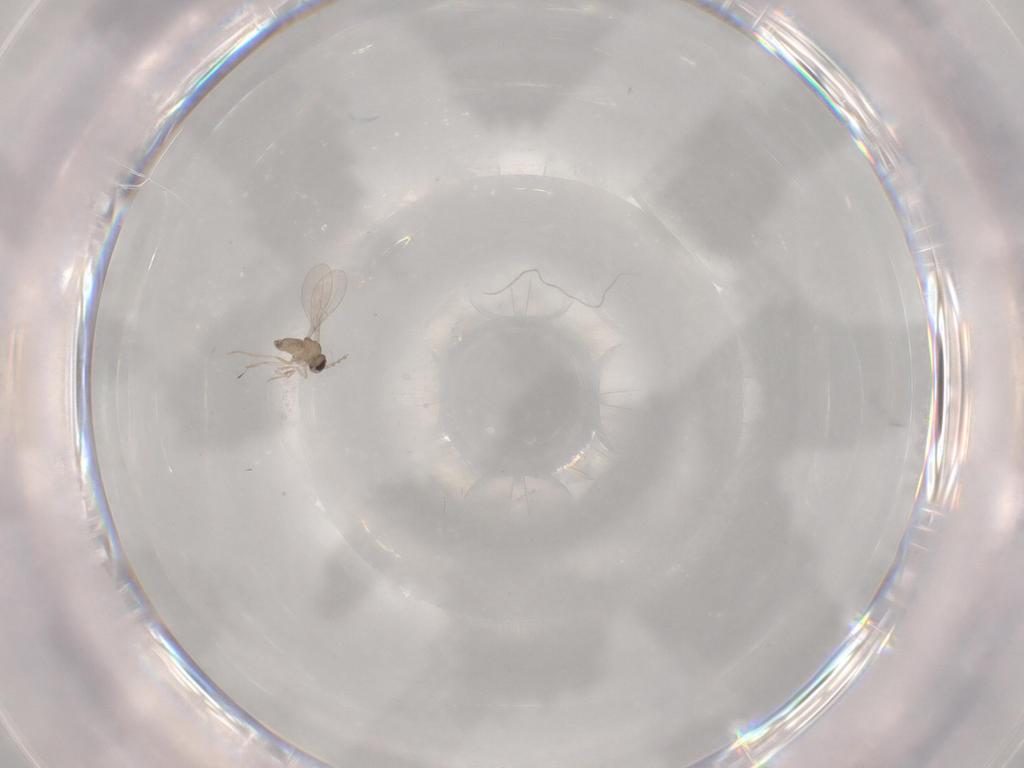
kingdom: Animalia
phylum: Arthropoda
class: Insecta
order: Diptera
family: Cecidomyiidae
